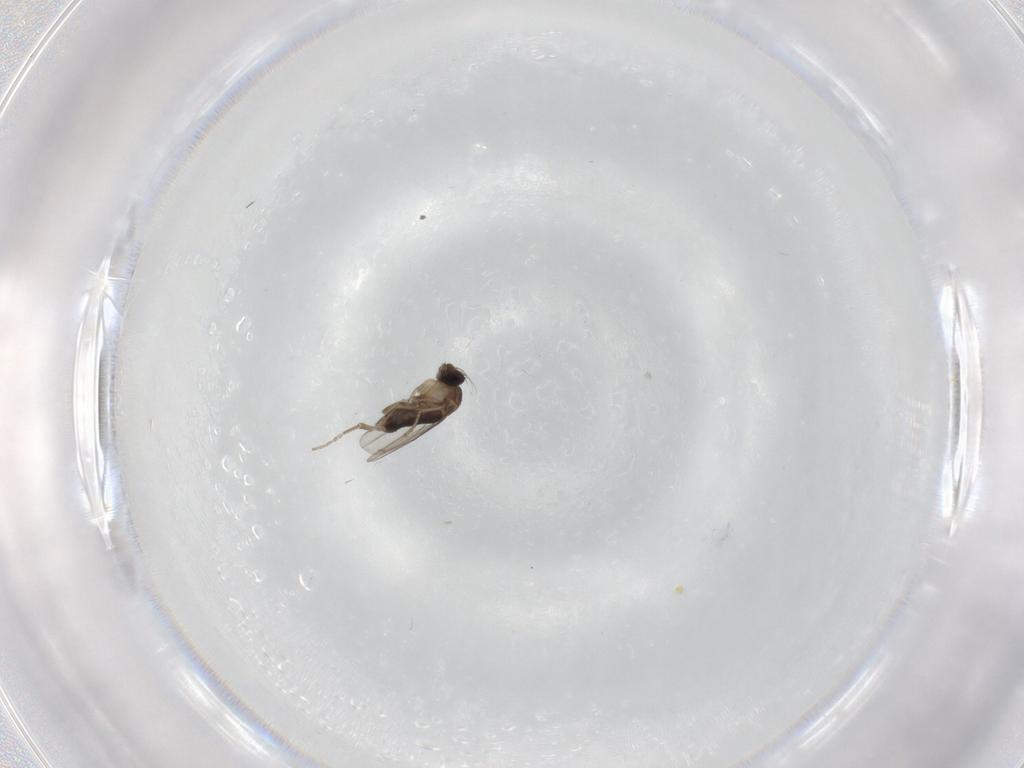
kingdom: Animalia
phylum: Arthropoda
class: Insecta
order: Diptera
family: Phoridae
